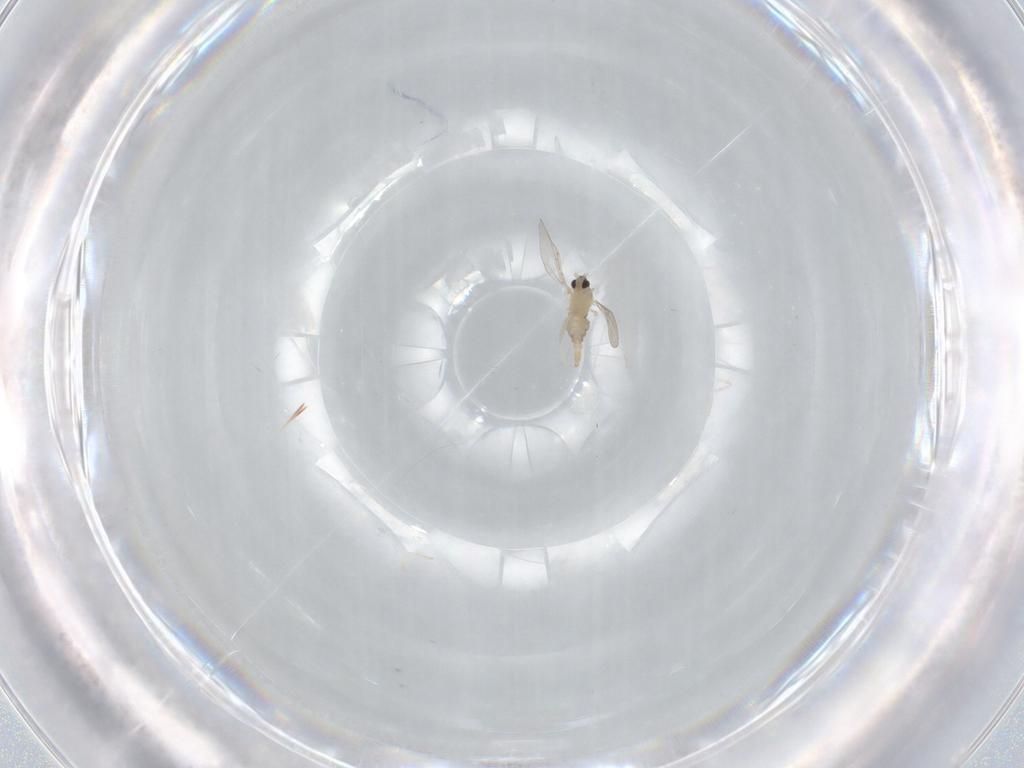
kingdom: Animalia
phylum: Arthropoda
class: Insecta
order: Diptera
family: Cecidomyiidae
